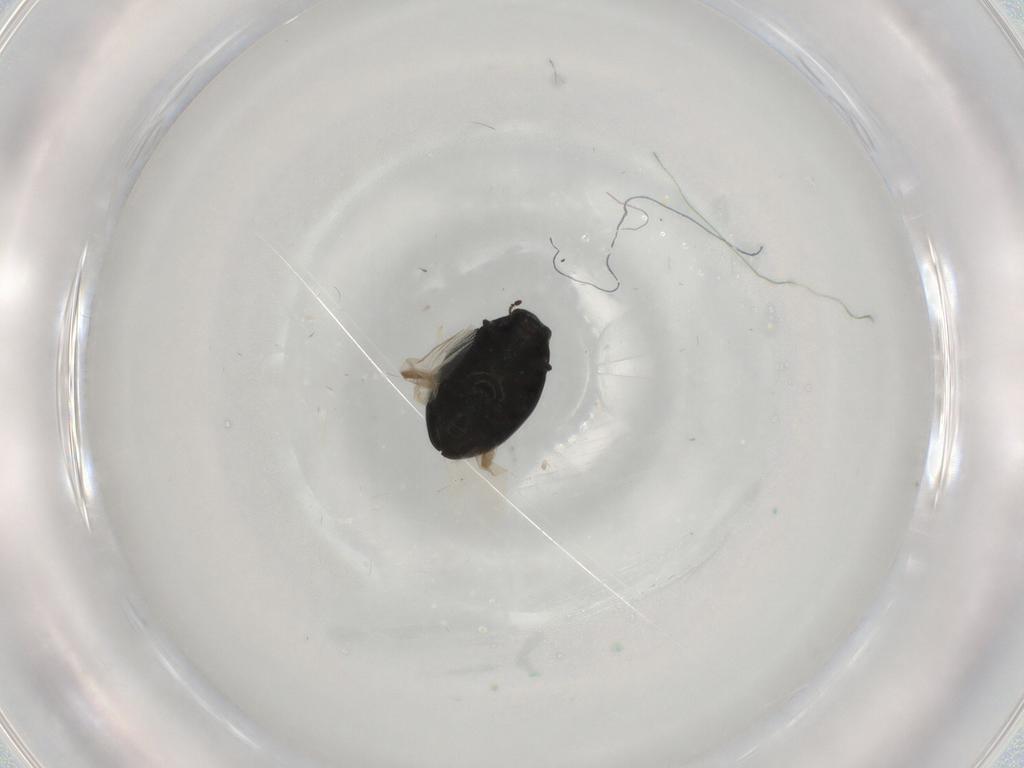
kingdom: Animalia
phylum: Arthropoda
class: Insecta
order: Coleoptera
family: Limnichidae
